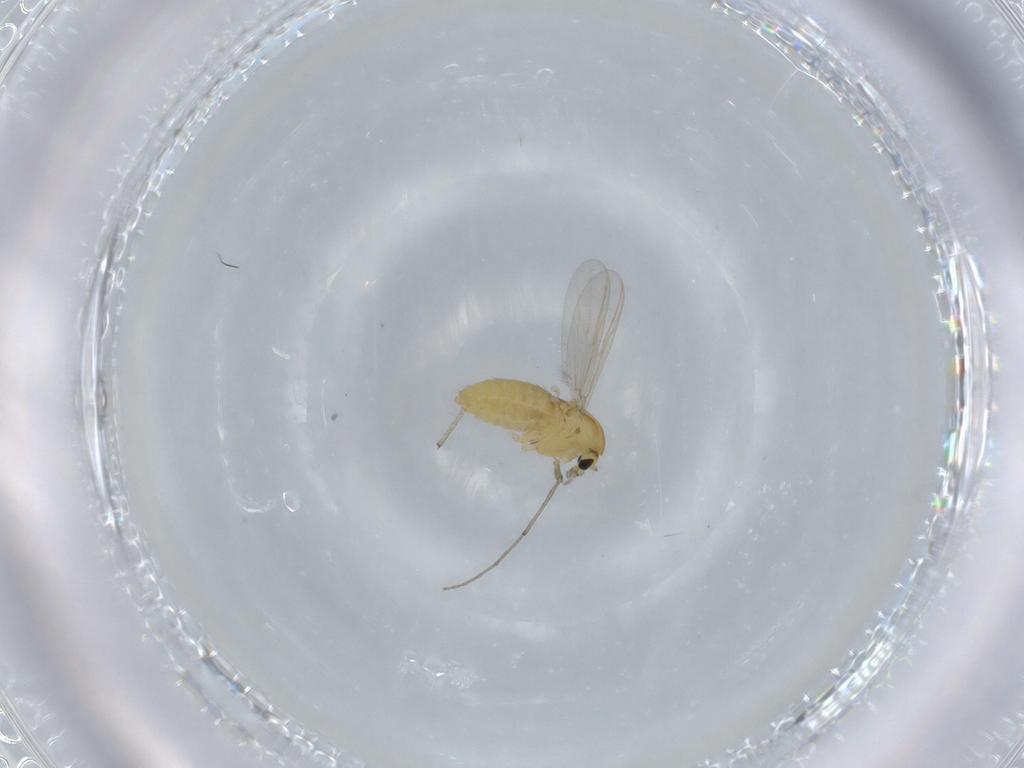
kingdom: Animalia
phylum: Arthropoda
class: Insecta
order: Diptera
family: Chironomidae
